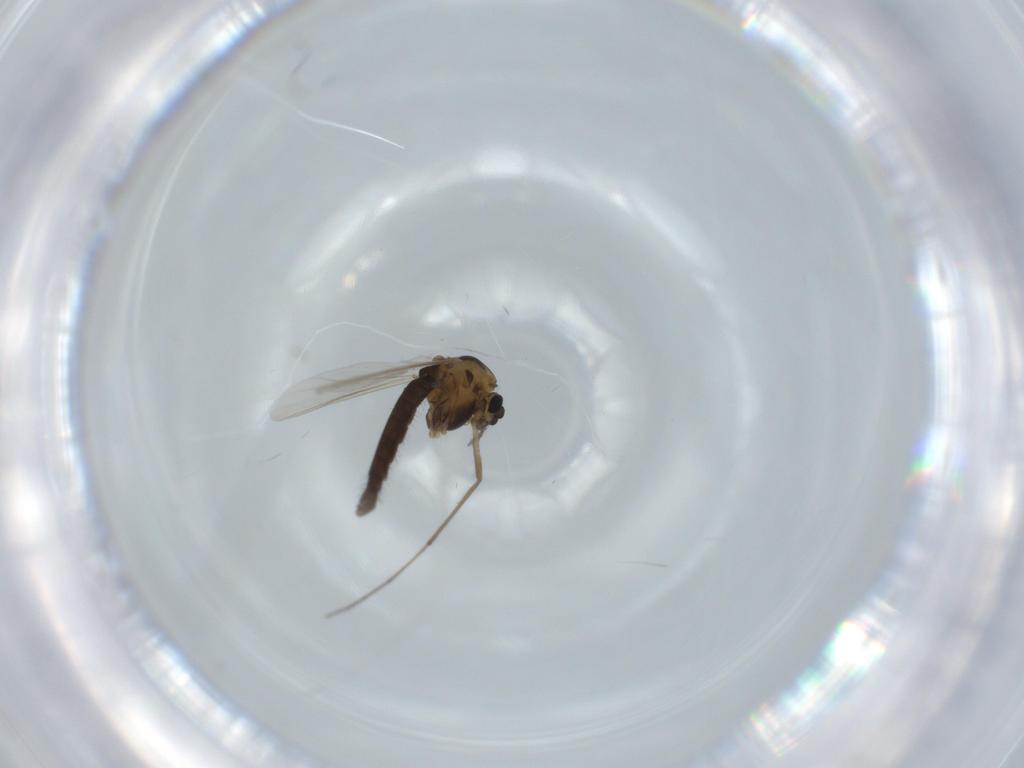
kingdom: Animalia
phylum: Arthropoda
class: Insecta
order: Diptera
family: Chironomidae
